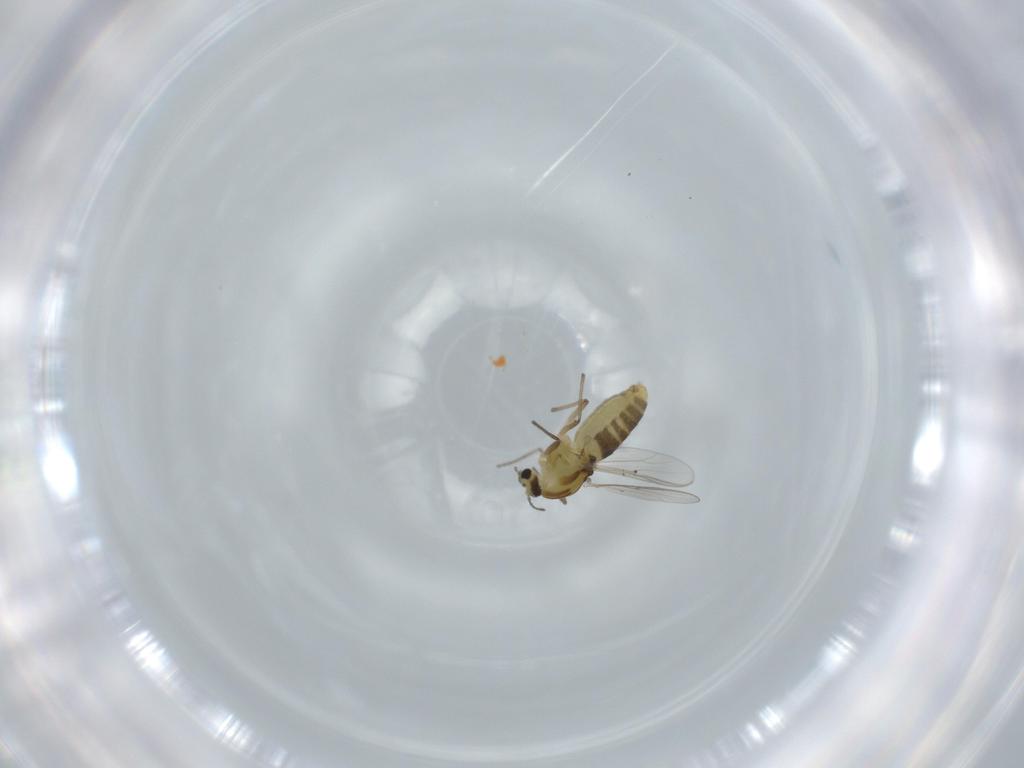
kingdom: Animalia
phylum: Arthropoda
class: Insecta
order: Diptera
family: Chironomidae
